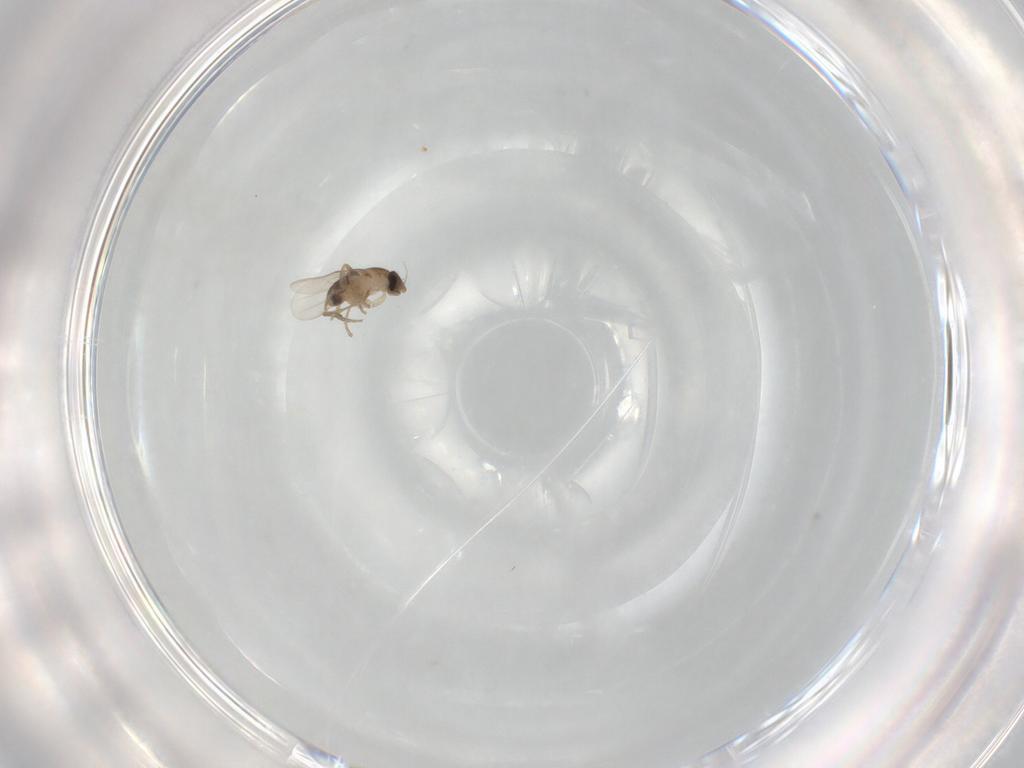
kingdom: Animalia
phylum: Arthropoda
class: Insecta
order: Diptera
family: Phoridae
